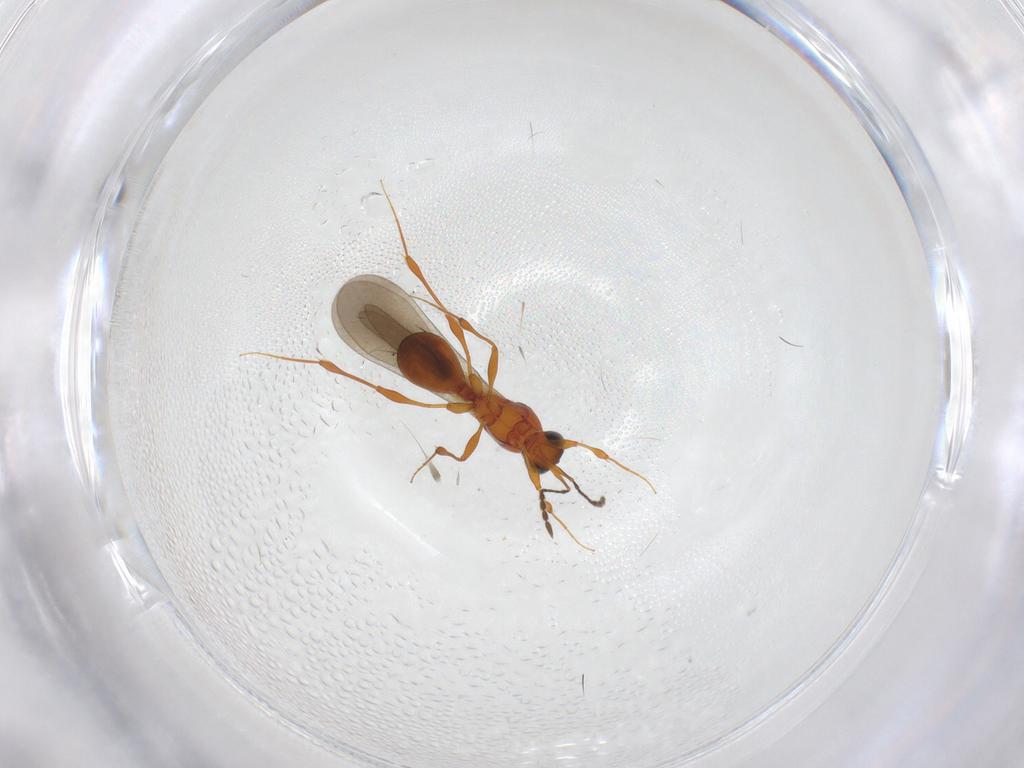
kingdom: Animalia
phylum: Arthropoda
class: Insecta
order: Hymenoptera
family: Platygastridae
